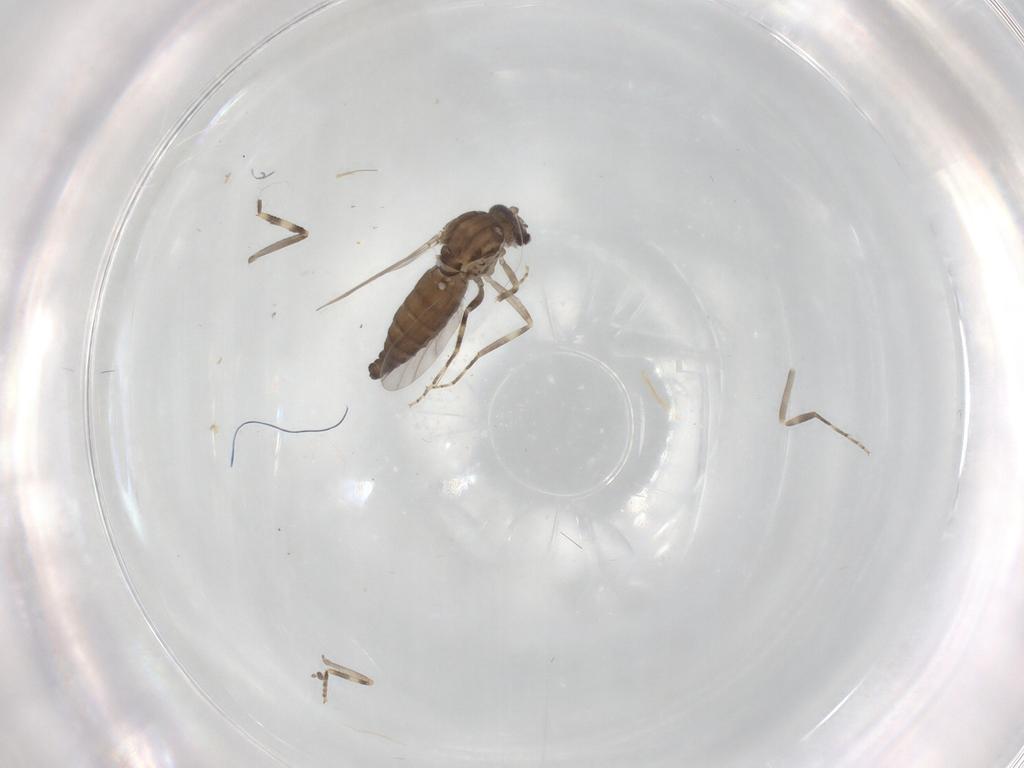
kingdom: Animalia
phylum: Arthropoda
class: Insecta
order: Diptera
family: Ceratopogonidae
